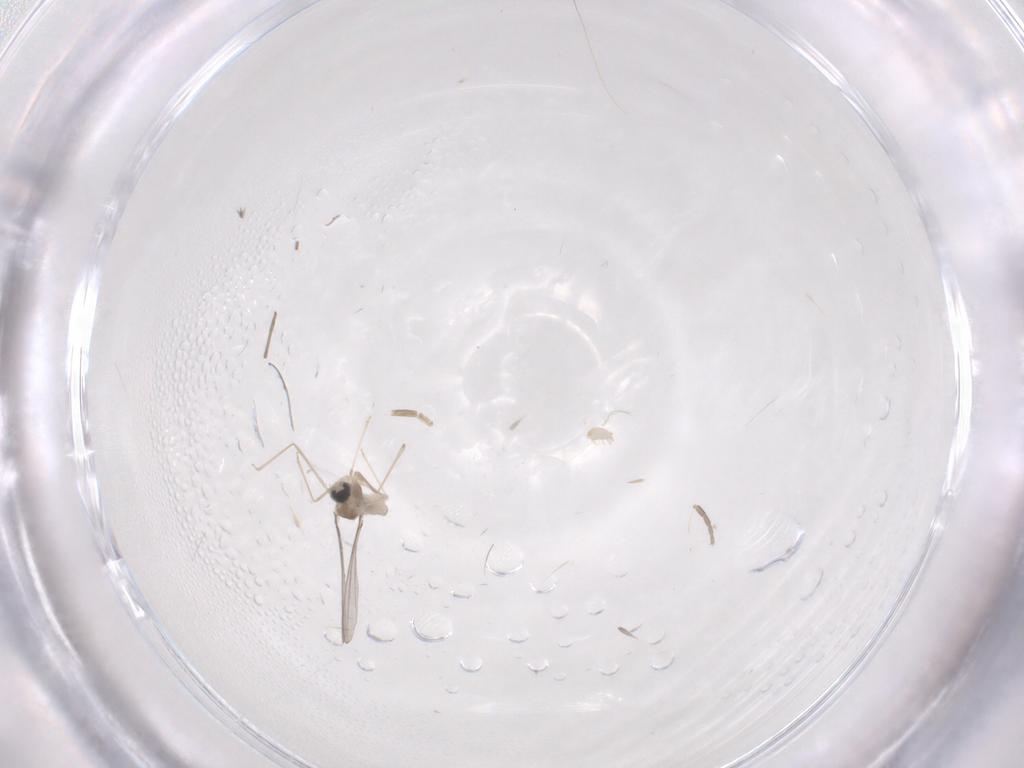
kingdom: Animalia
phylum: Arthropoda
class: Insecta
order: Diptera
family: Cecidomyiidae
